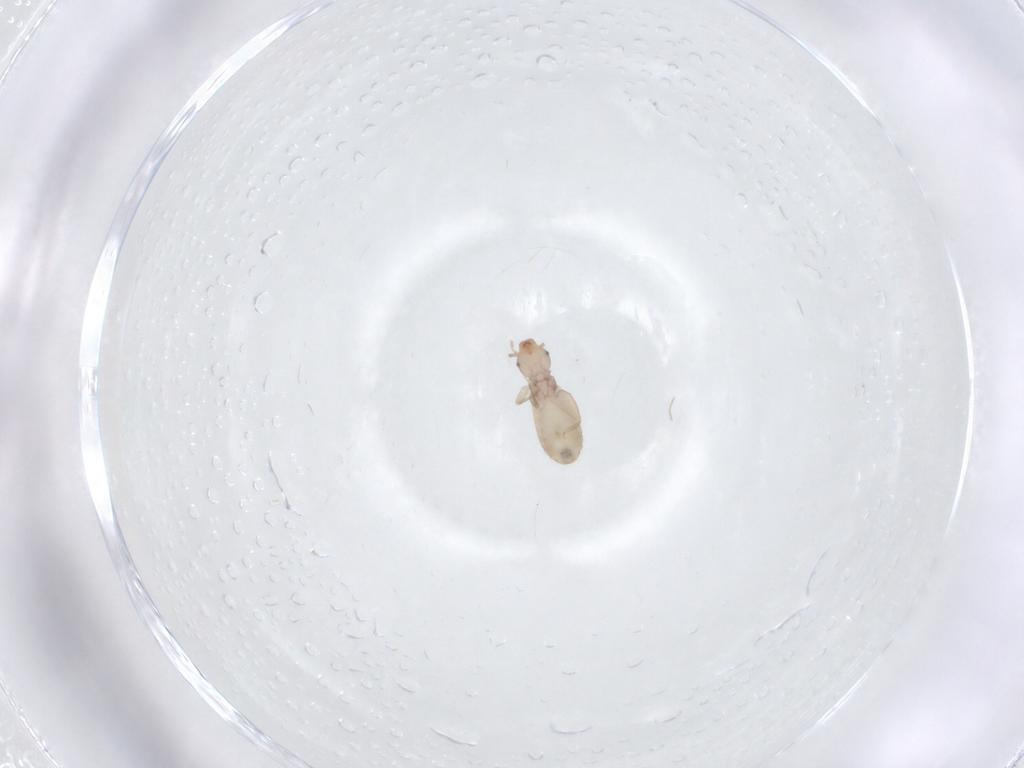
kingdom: Animalia
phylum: Arthropoda
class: Insecta
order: Psocodea
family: Liposcelididae
